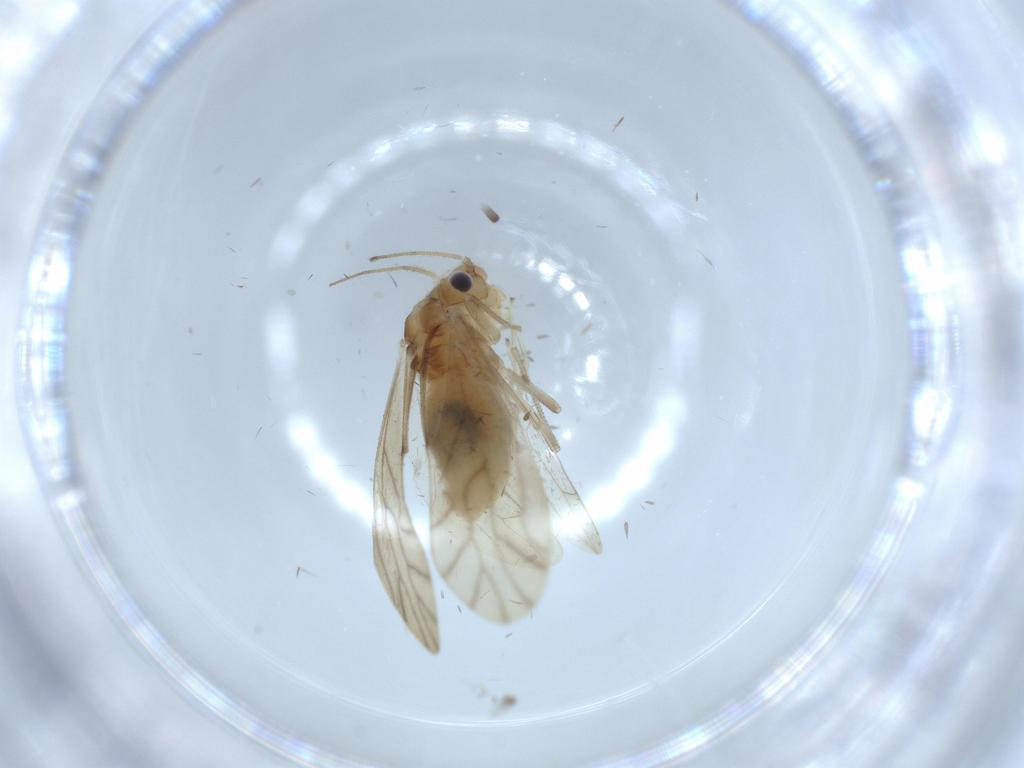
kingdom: Animalia
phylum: Arthropoda
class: Insecta
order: Psocodea
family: Caeciliusidae
